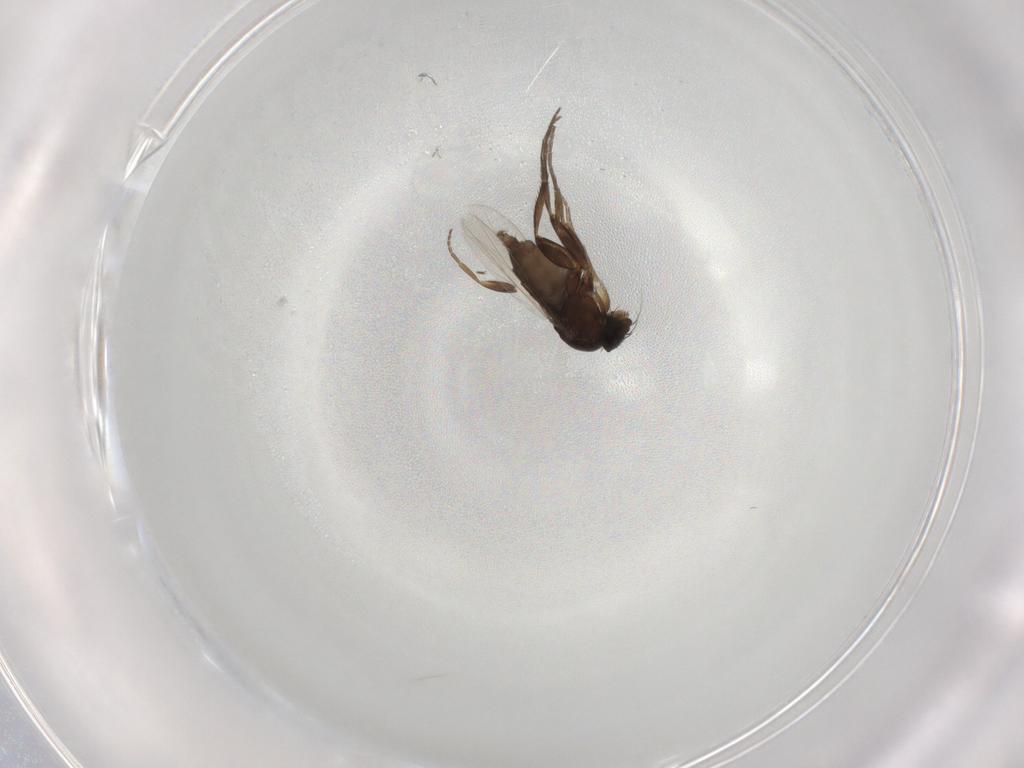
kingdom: Animalia
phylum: Arthropoda
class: Insecta
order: Diptera
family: Phoridae
